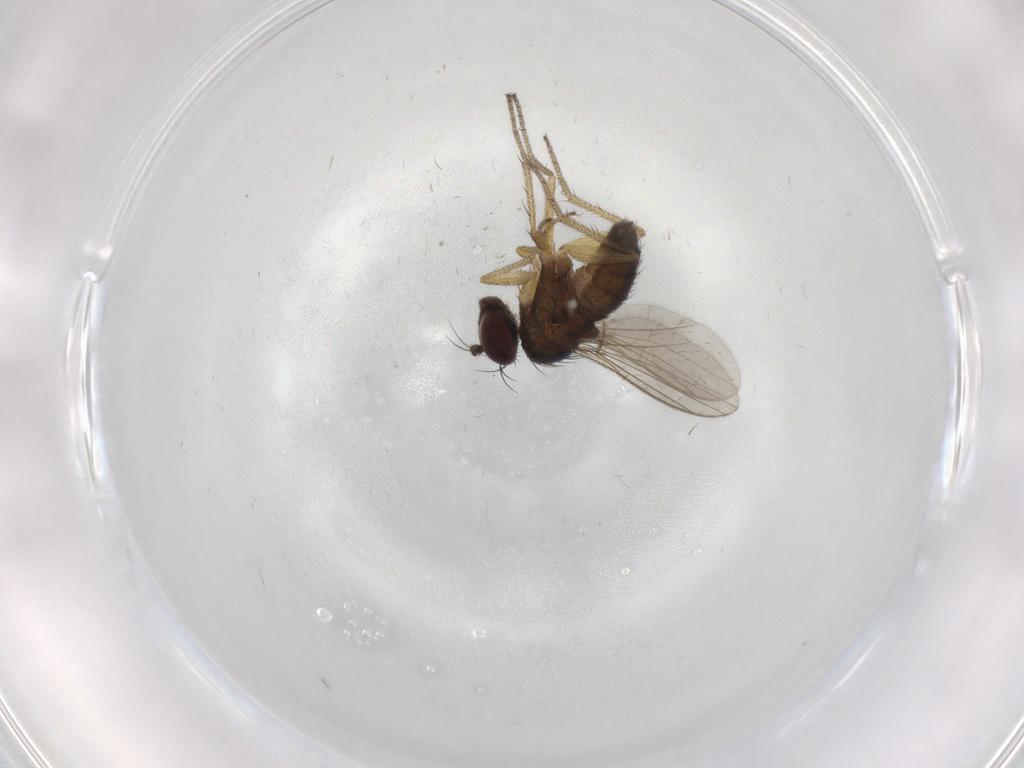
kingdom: Animalia
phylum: Arthropoda
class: Insecta
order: Diptera
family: Dolichopodidae
